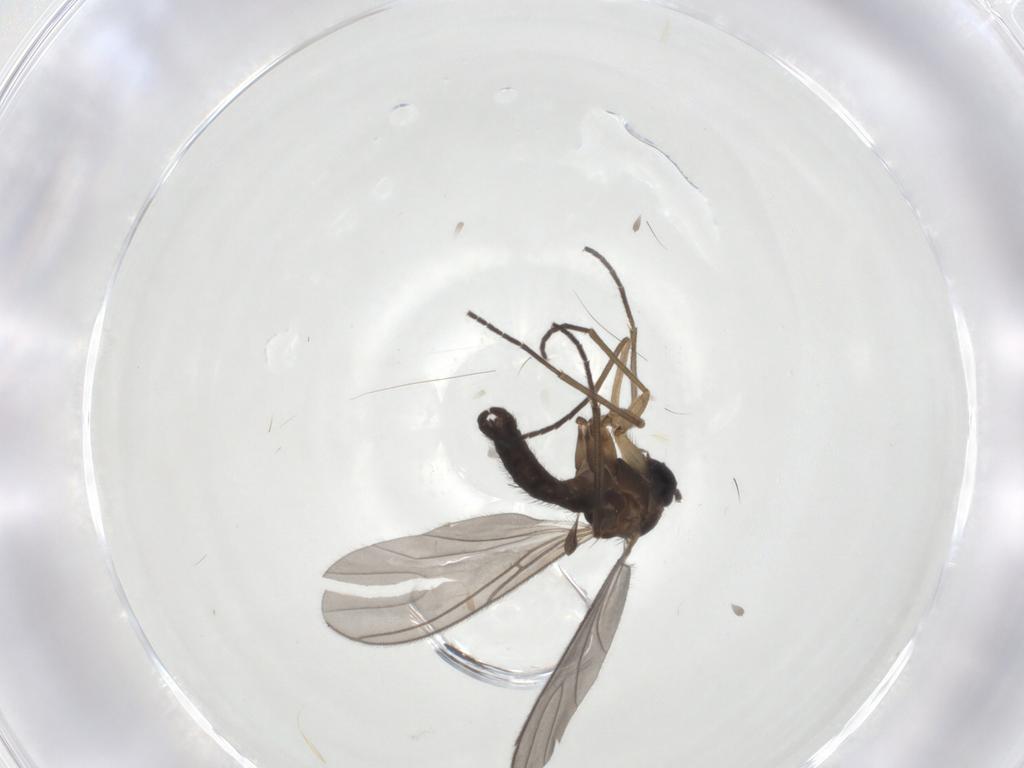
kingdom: Animalia
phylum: Arthropoda
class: Insecta
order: Diptera
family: Sciaridae
